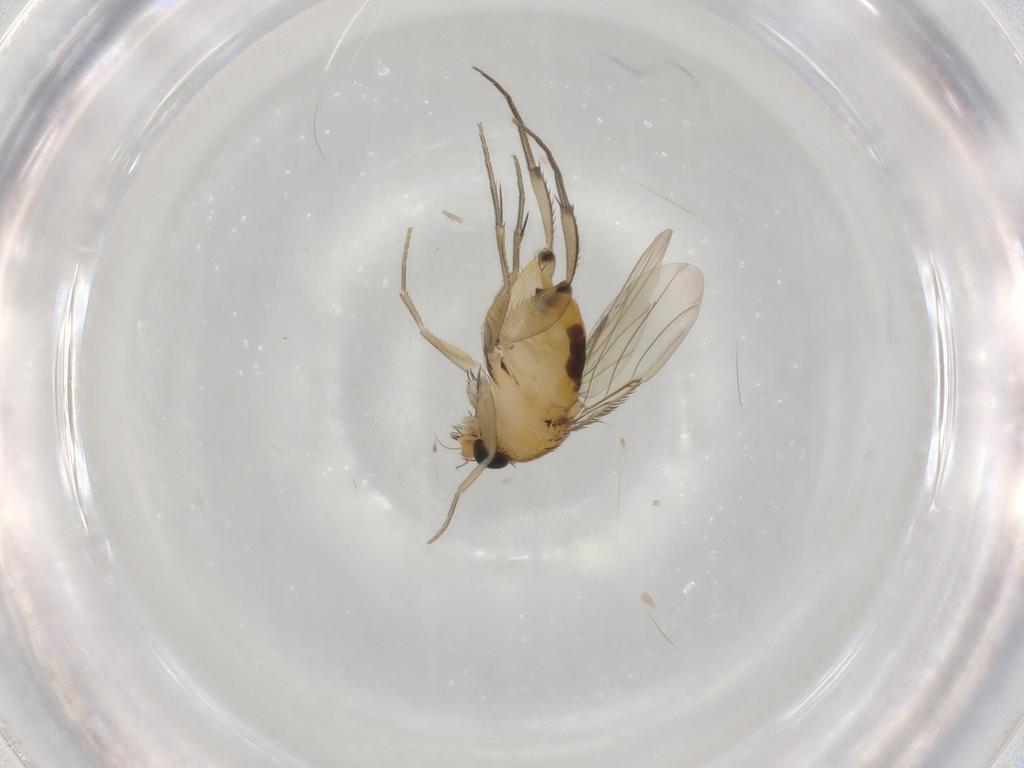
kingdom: Animalia
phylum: Arthropoda
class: Insecta
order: Diptera
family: Phoridae
